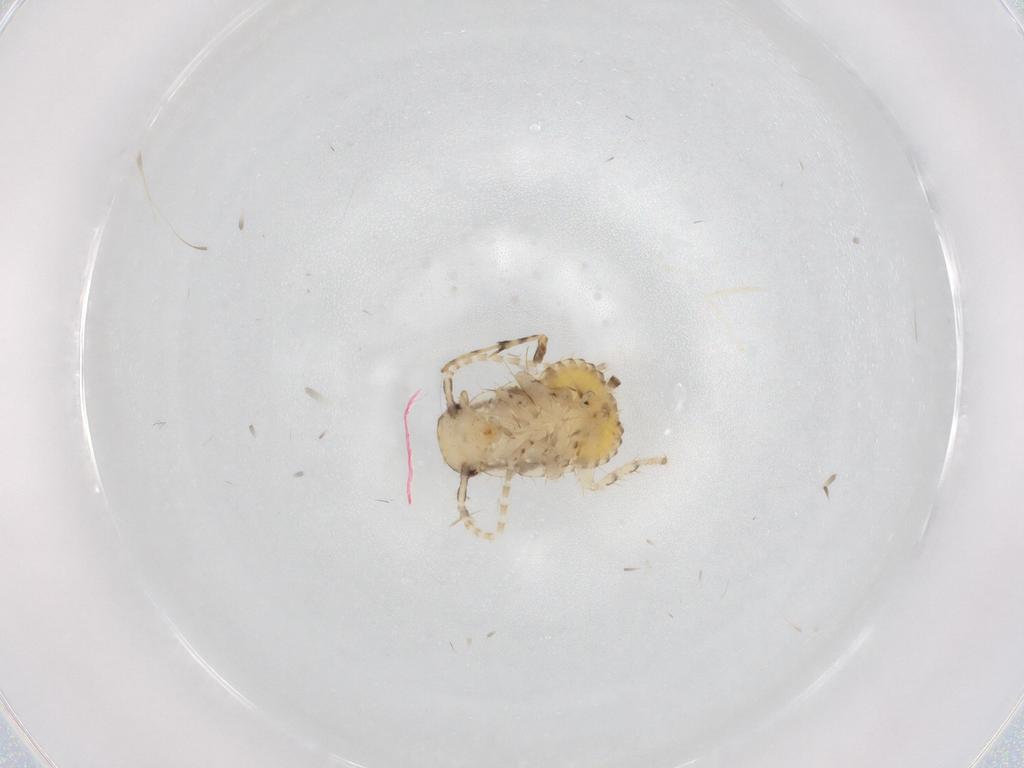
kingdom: Animalia
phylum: Arthropoda
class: Insecta
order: Blattodea
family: Ectobiidae
